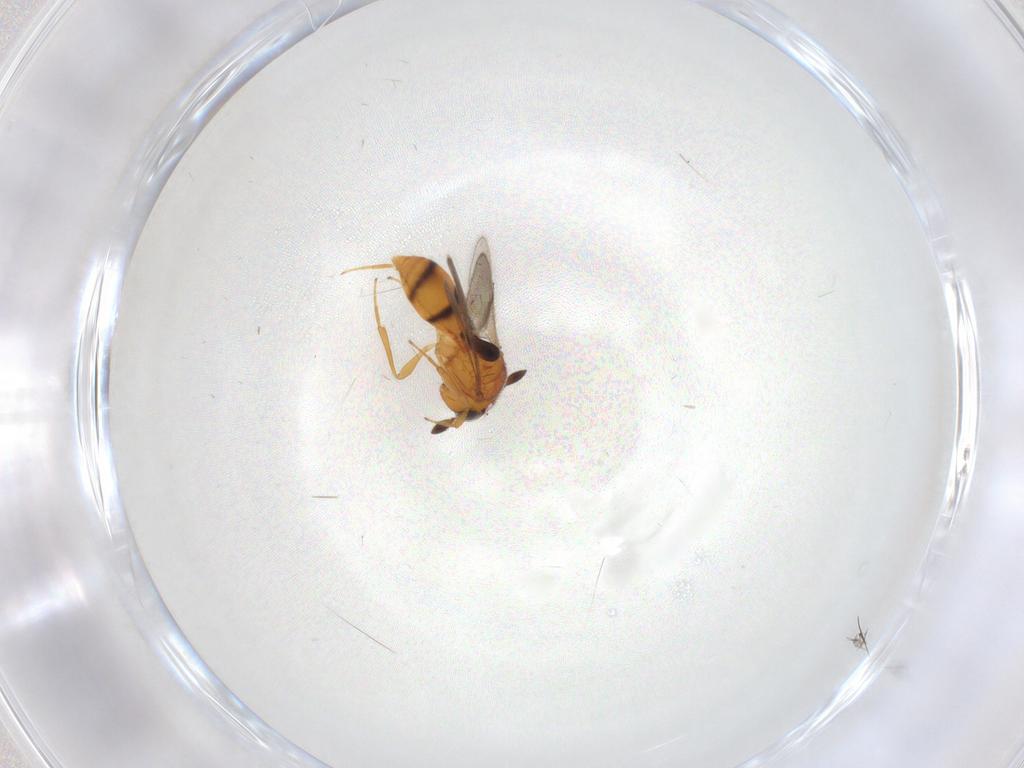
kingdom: Animalia
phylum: Arthropoda
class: Insecta
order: Hymenoptera
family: Scelionidae
